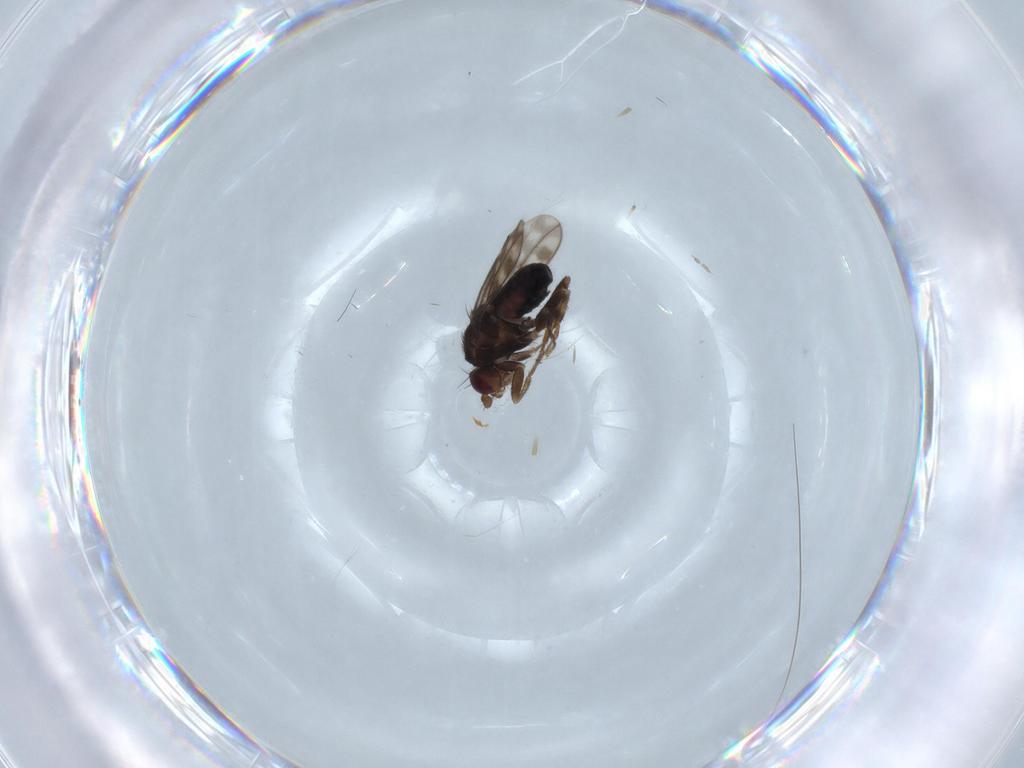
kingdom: Animalia
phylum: Arthropoda
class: Insecta
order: Diptera
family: Sphaeroceridae
